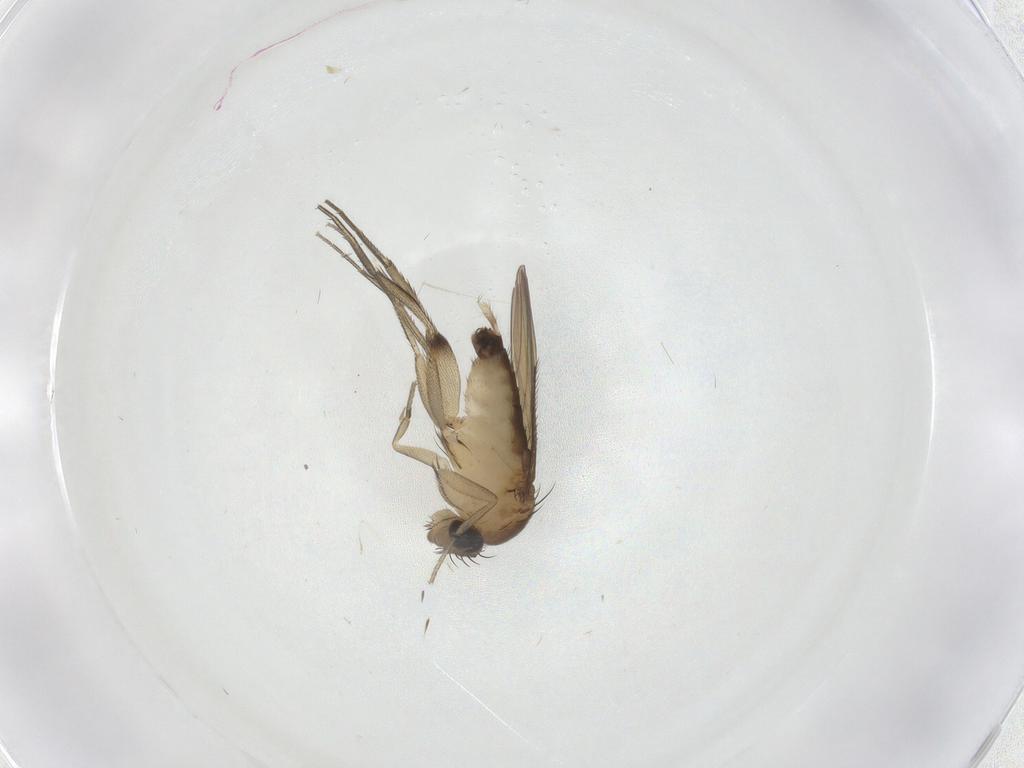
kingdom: Animalia
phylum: Arthropoda
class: Insecta
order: Diptera
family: Phoridae
